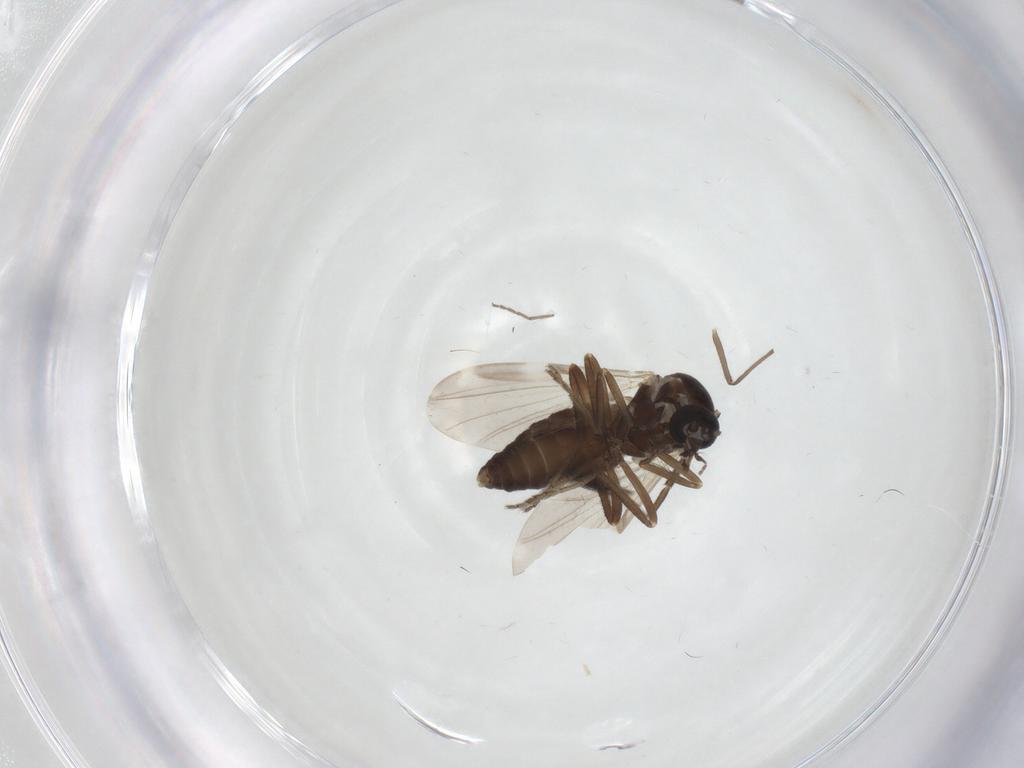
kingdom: Animalia
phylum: Arthropoda
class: Insecta
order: Diptera
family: Ceratopogonidae
